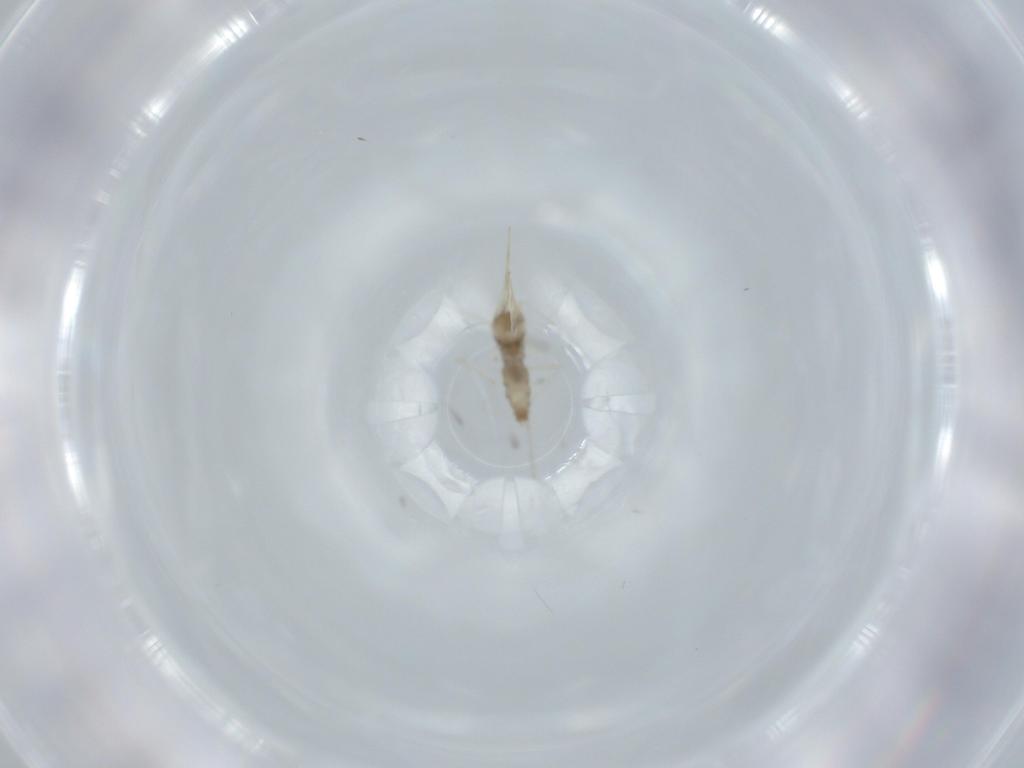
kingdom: Animalia
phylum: Arthropoda
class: Insecta
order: Diptera
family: Cecidomyiidae
